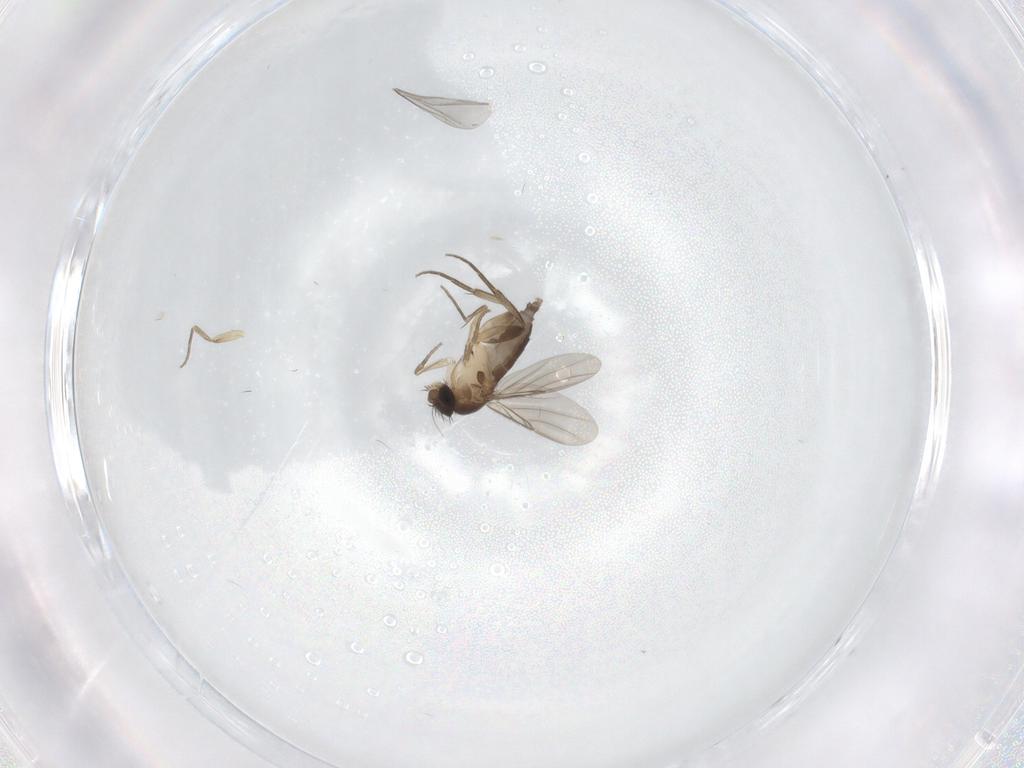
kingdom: Animalia
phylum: Arthropoda
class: Insecta
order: Diptera
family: Phoridae
